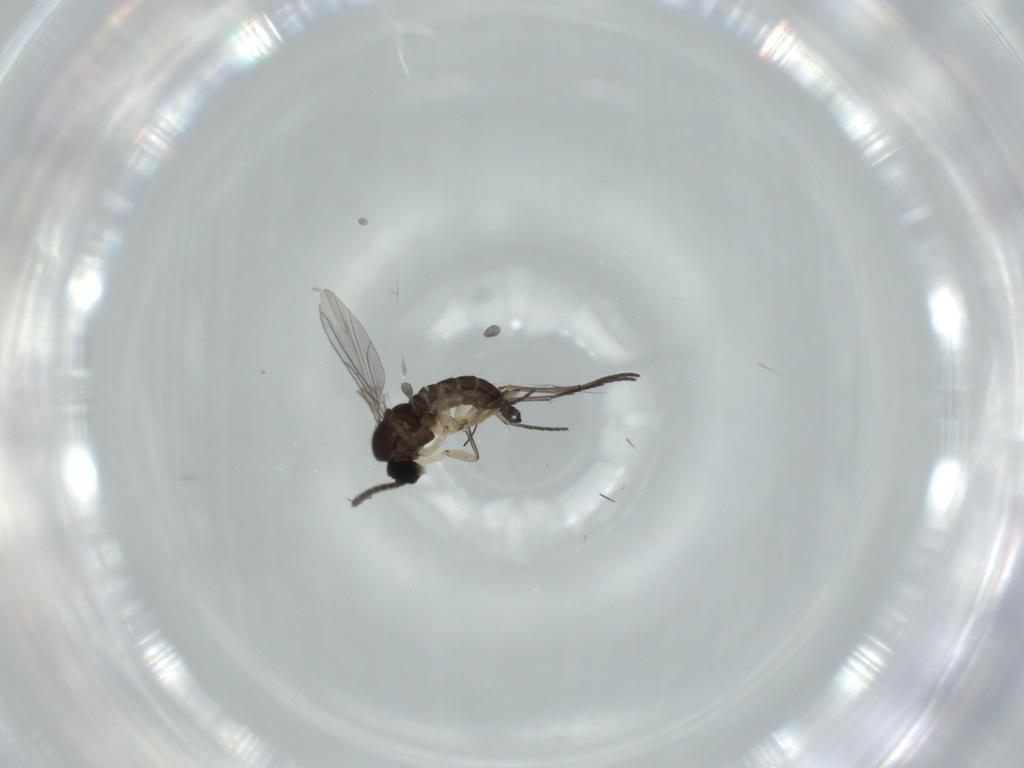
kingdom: Animalia
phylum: Arthropoda
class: Insecta
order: Diptera
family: Sciaridae
